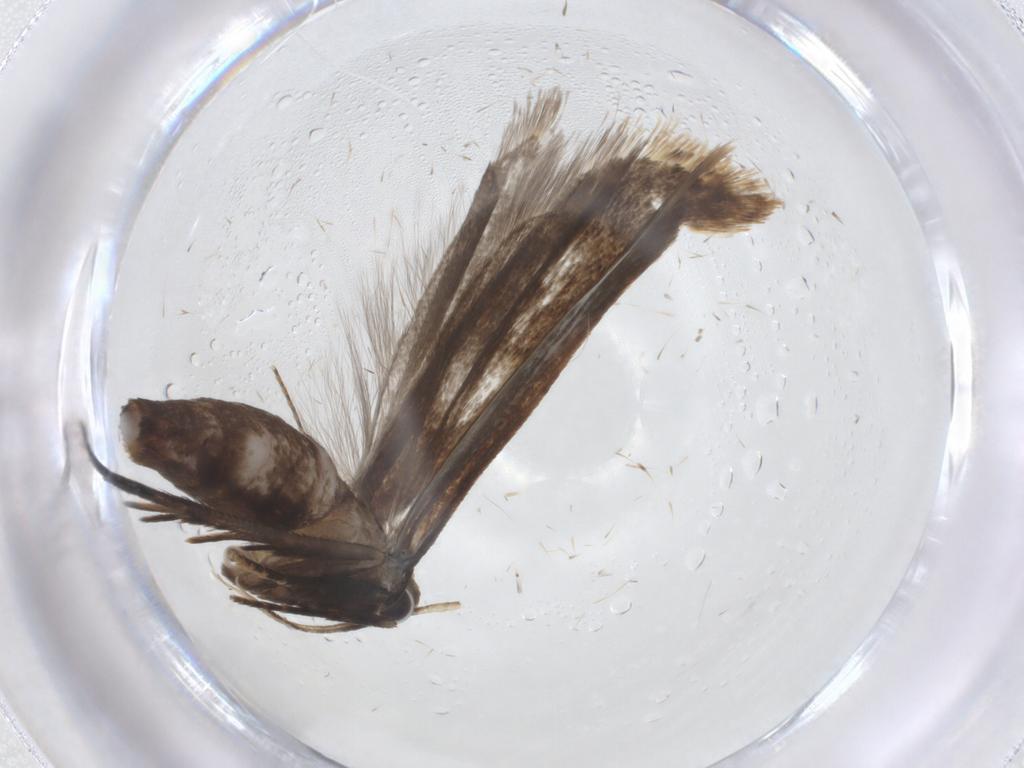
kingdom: Animalia
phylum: Arthropoda
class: Insecta
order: Lepidoptera
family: Gelechiidae
